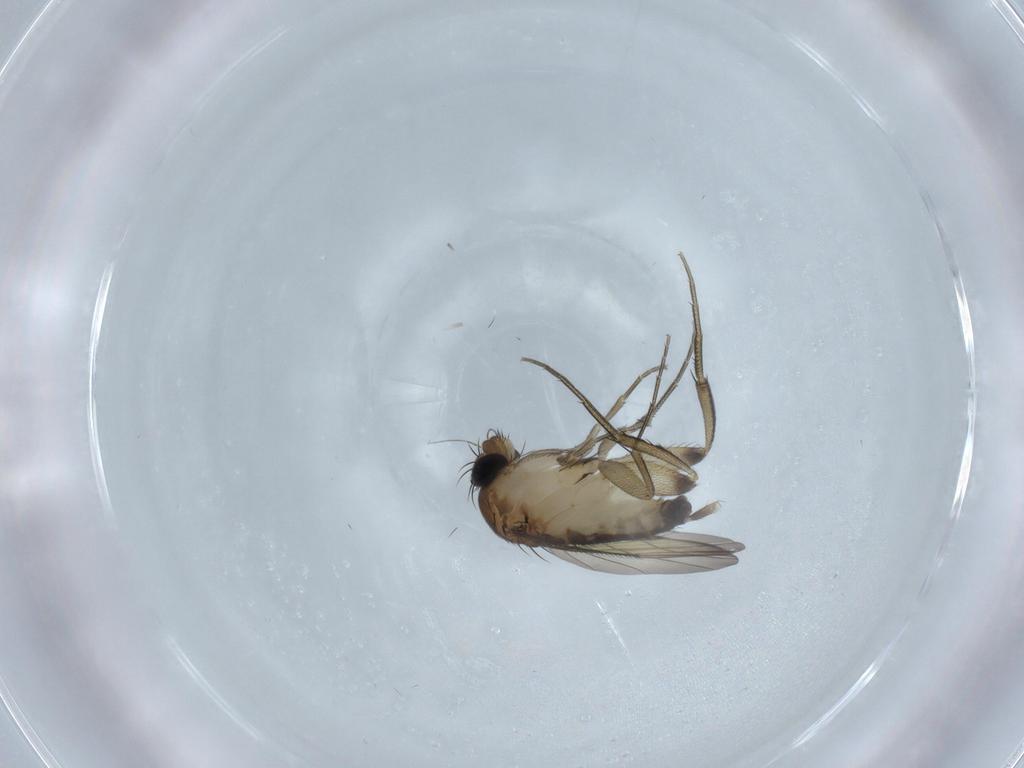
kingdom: Animalia
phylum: Arthropoda
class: Insecta
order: Diptera
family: Phoridae
